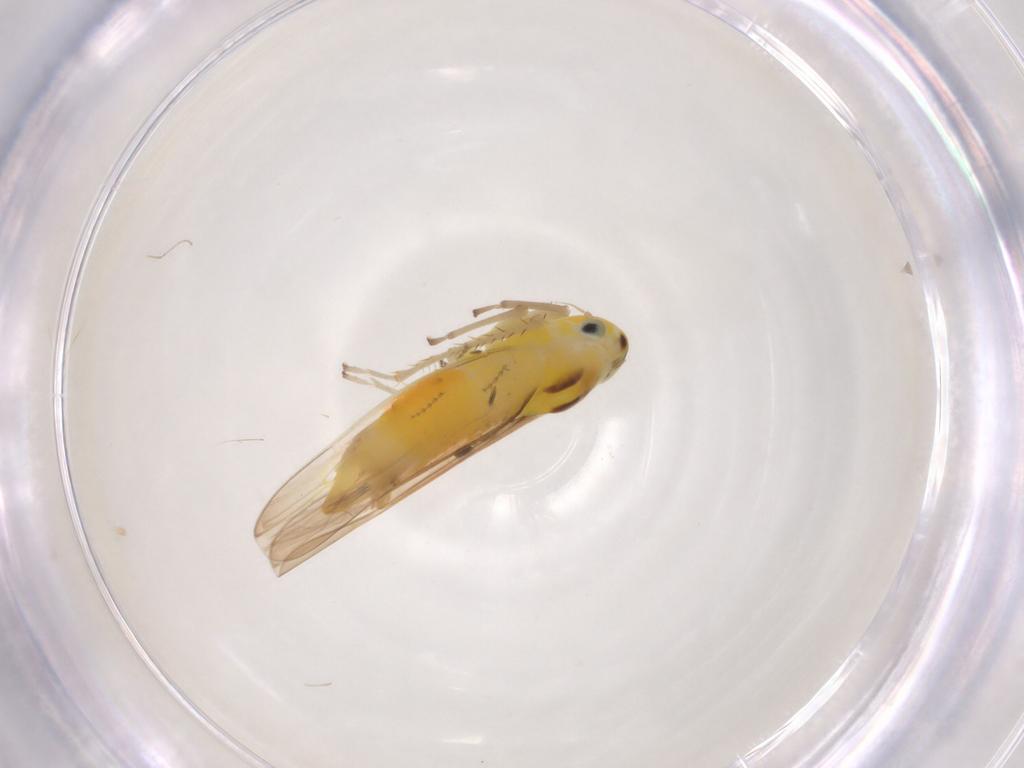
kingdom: Animalia
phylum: Arthropoda
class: Insecta
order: Hemiptera
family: Cicadellidae
